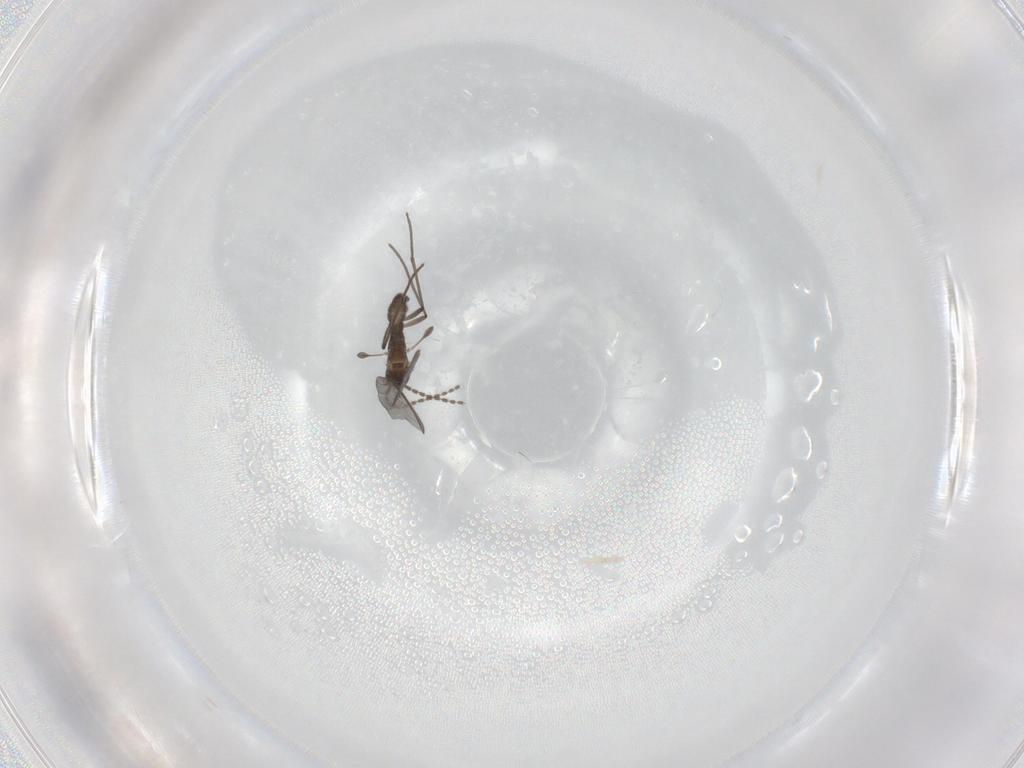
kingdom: Animalia
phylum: Arthropoda
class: Insecta
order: Diptera
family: Sciaridae
